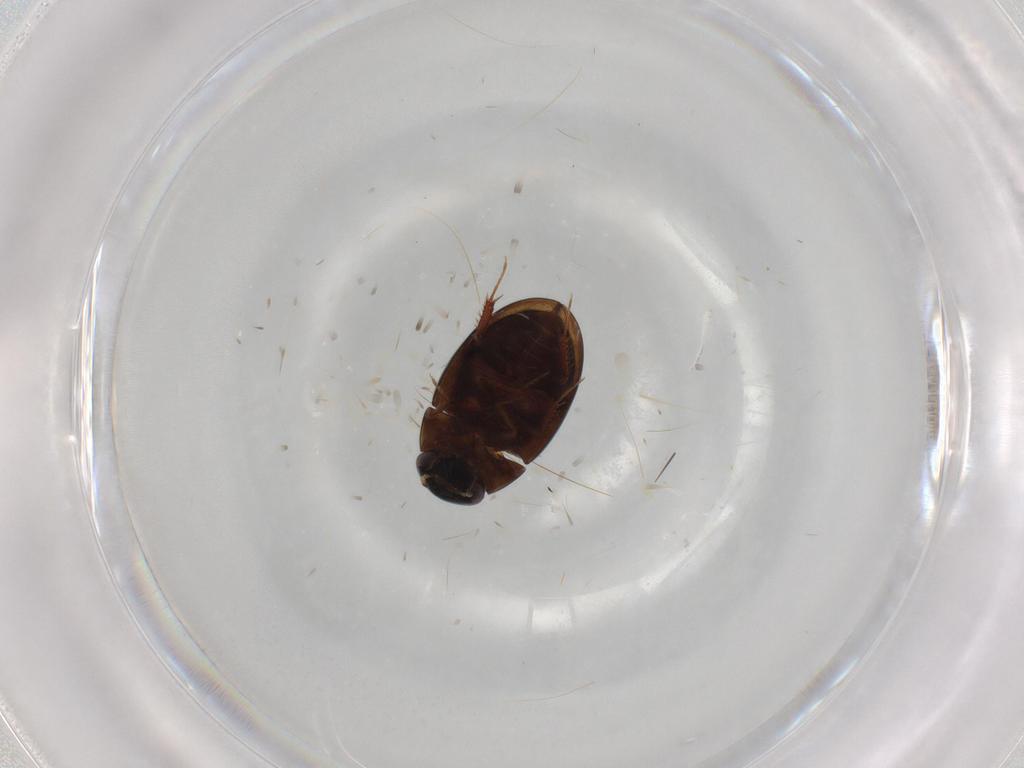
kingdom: Animalia
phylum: Arthropoda
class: Insecta
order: Coleoptera
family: Hydrophilidae
